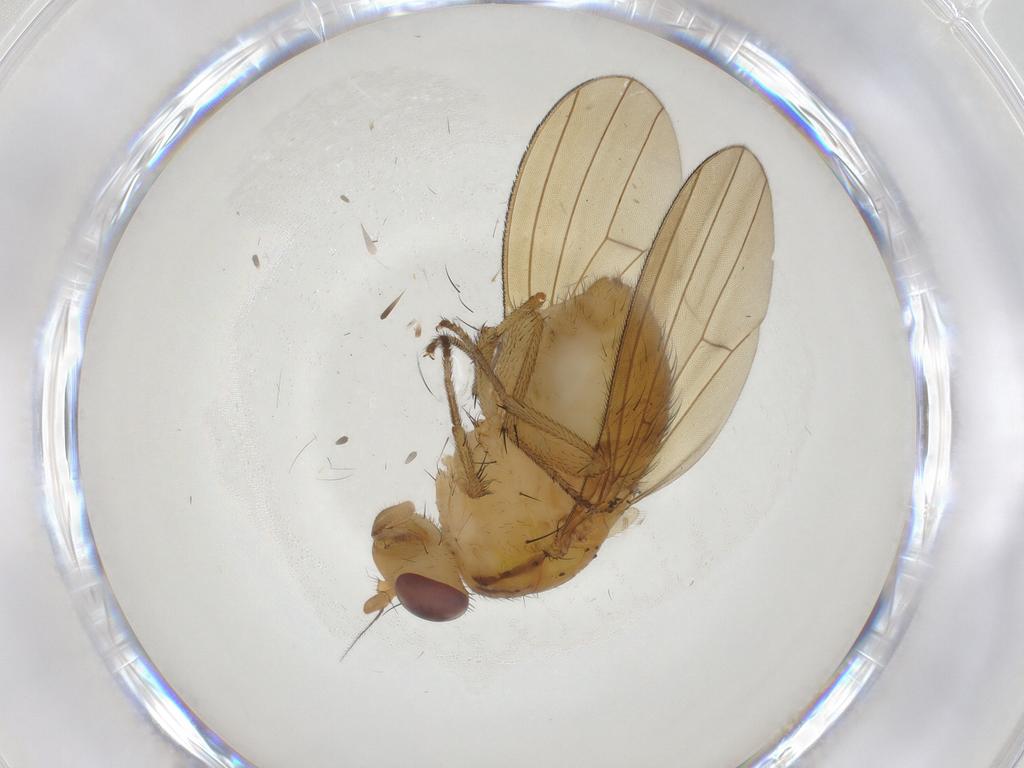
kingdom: Animalia
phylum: Arthropoda
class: Insecta
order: Diptera
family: Lauxaniidae
